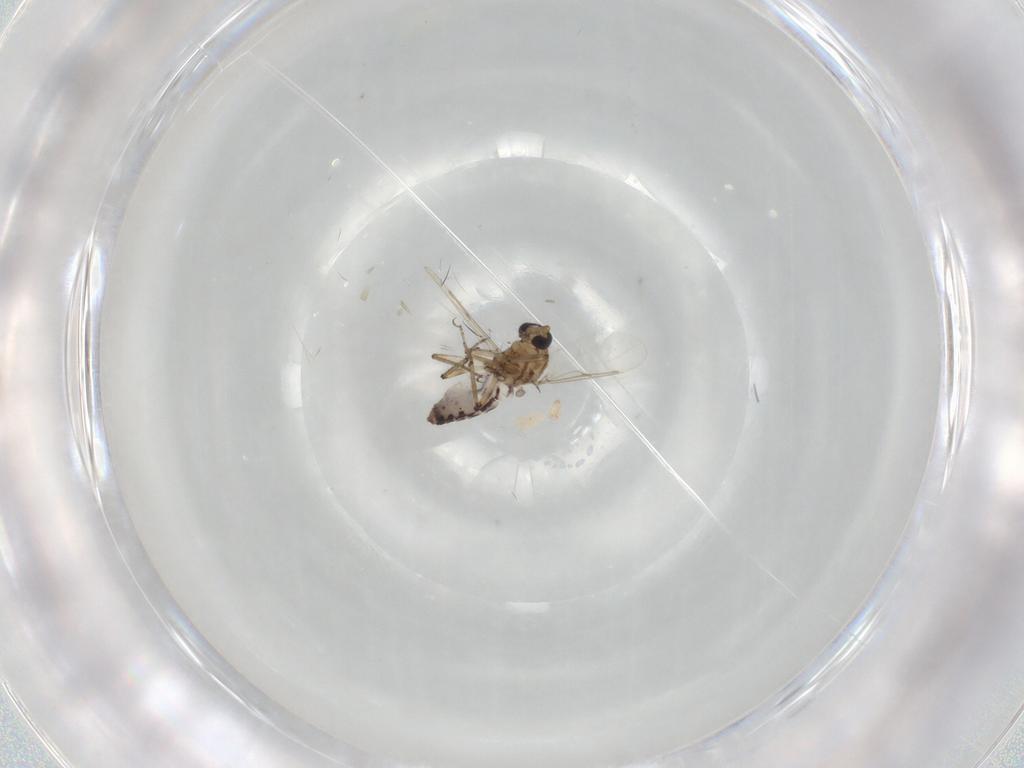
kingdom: Animalia
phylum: Arthropoda
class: Insecta
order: Diptera
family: Ceratopogonidae
